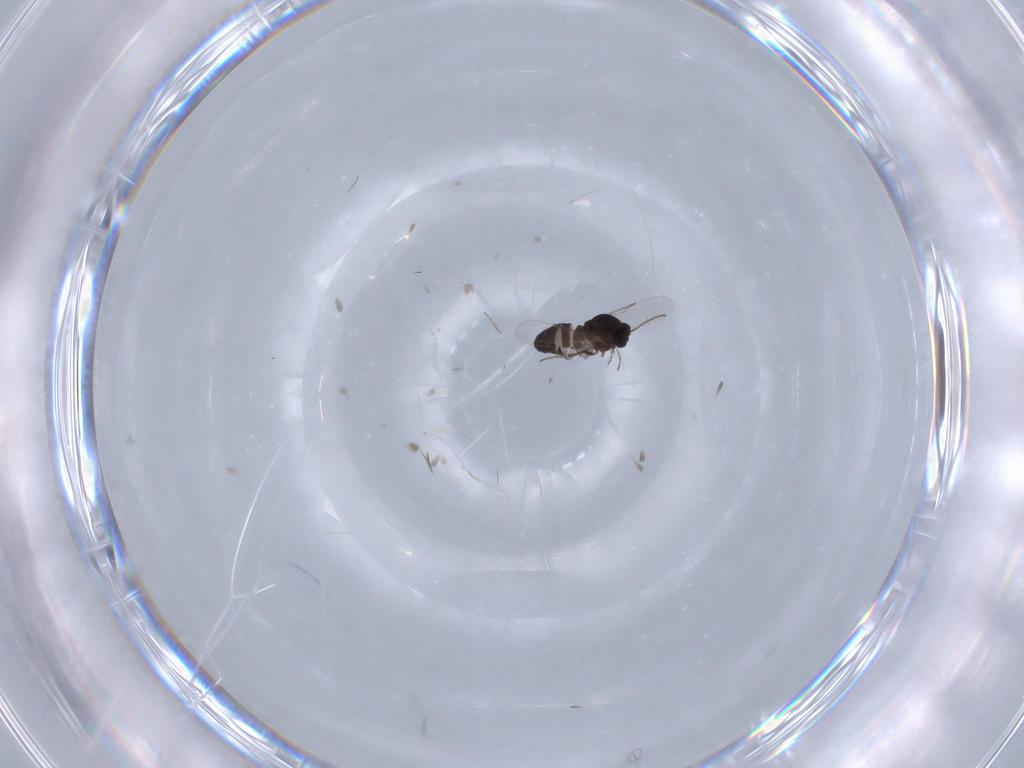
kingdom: Animalia
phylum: Arthropoda
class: Insecta
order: Diptera
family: Ceratopogonidae
